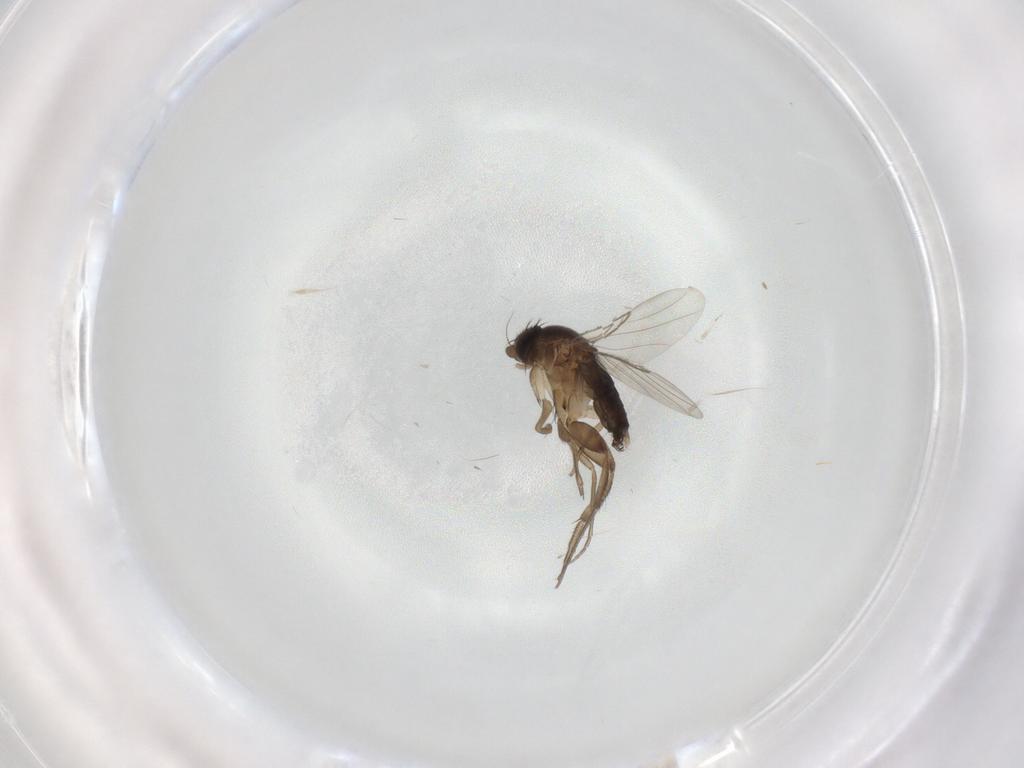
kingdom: Animalia
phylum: Arthropoda
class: Insecta
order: Diptera
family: Phoridae
